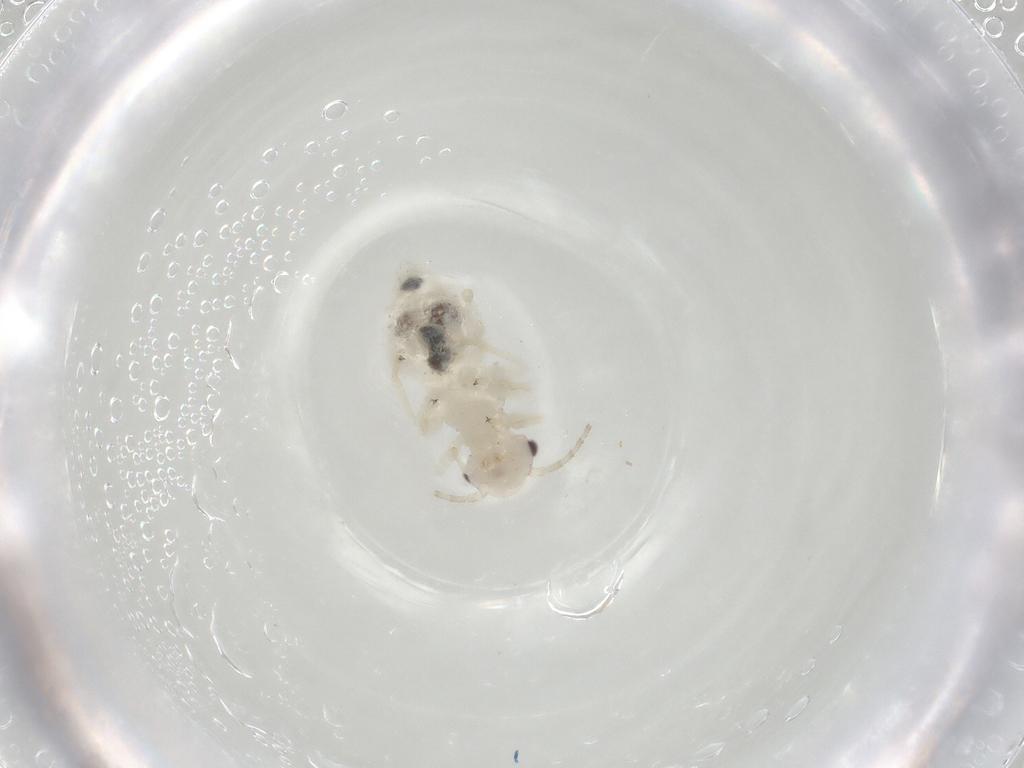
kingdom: Animalia
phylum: Arthropoda
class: Insecta
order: Psocodea
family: Amphipsocidae
